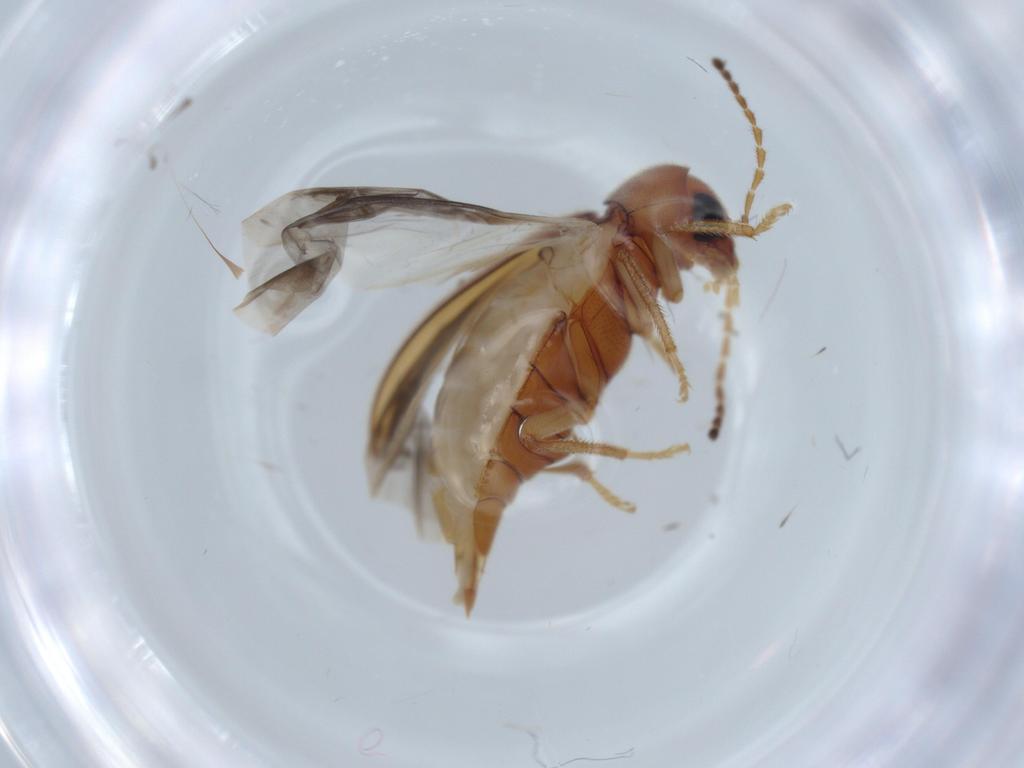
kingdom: Animalia
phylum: Arthropoda
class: Insecta
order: Coleoptera
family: Ptilodactylidae
